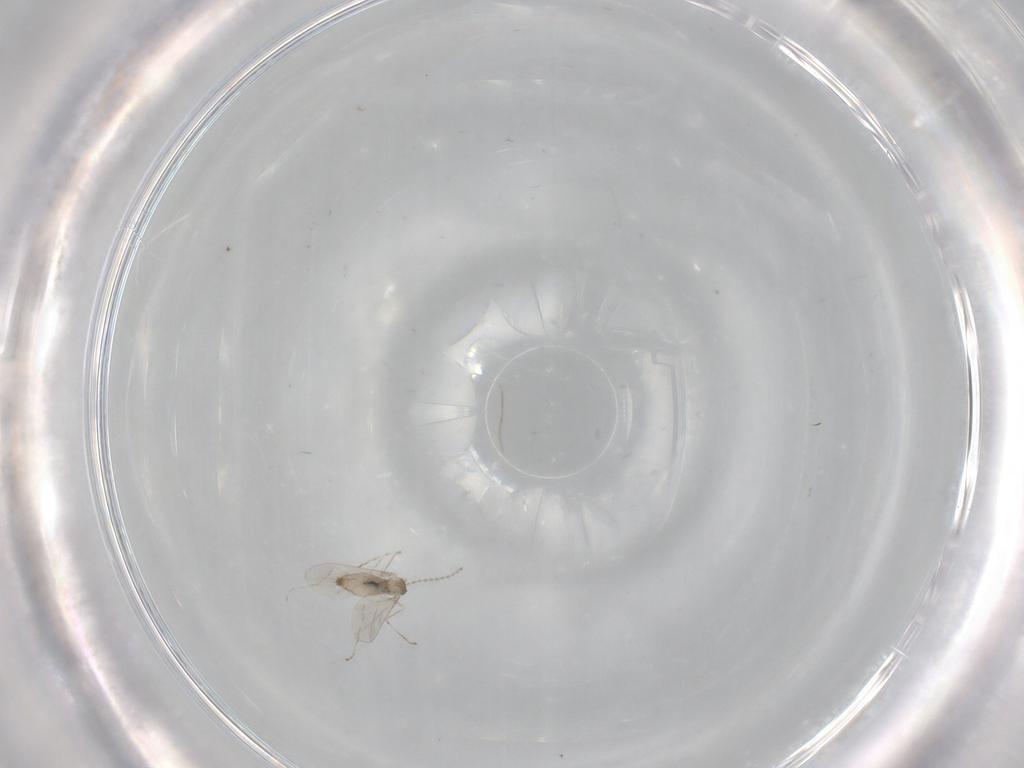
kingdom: Animalia
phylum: Arthropoda
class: Insecta
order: Diptera
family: Cecidomyiidae
